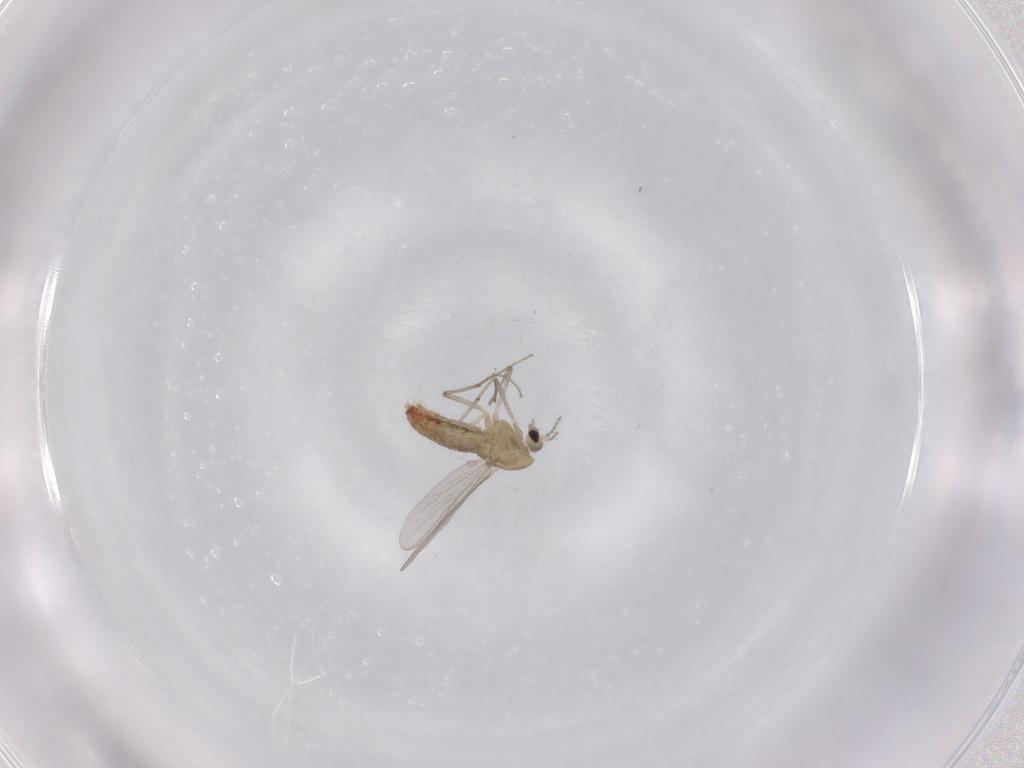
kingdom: Animalia
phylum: Arthropoda
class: Insecta
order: Diptera
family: Chironomidae
